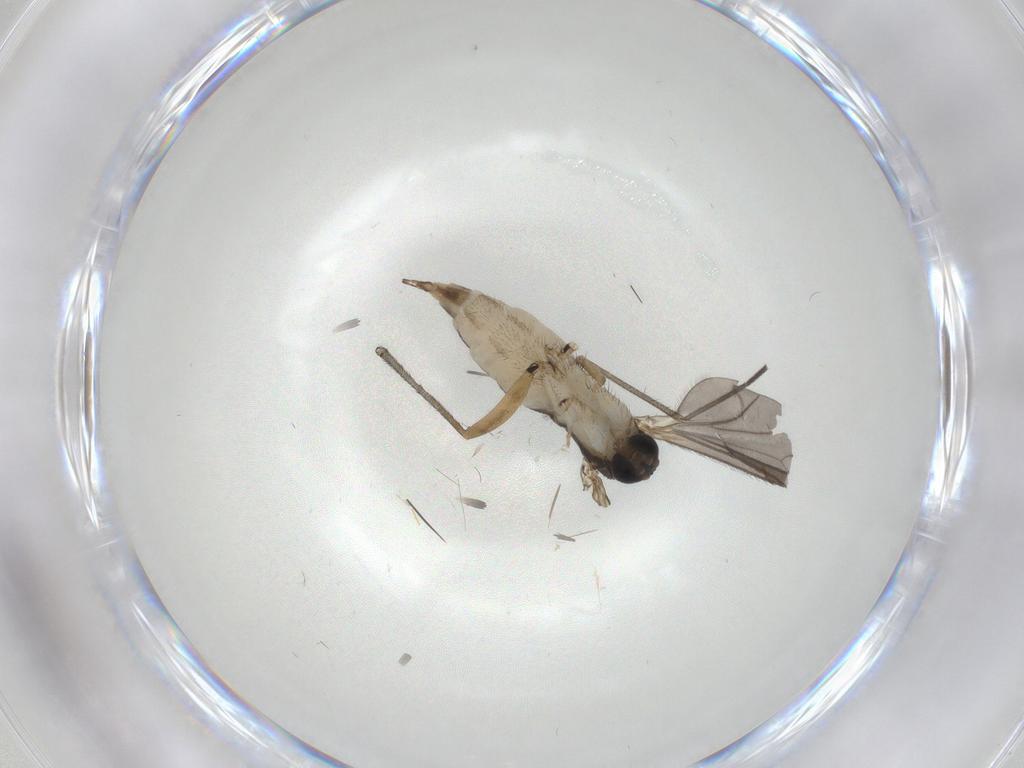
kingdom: Animalia
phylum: Arthropoda
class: Insecta
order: Diptera
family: Sciaridae
